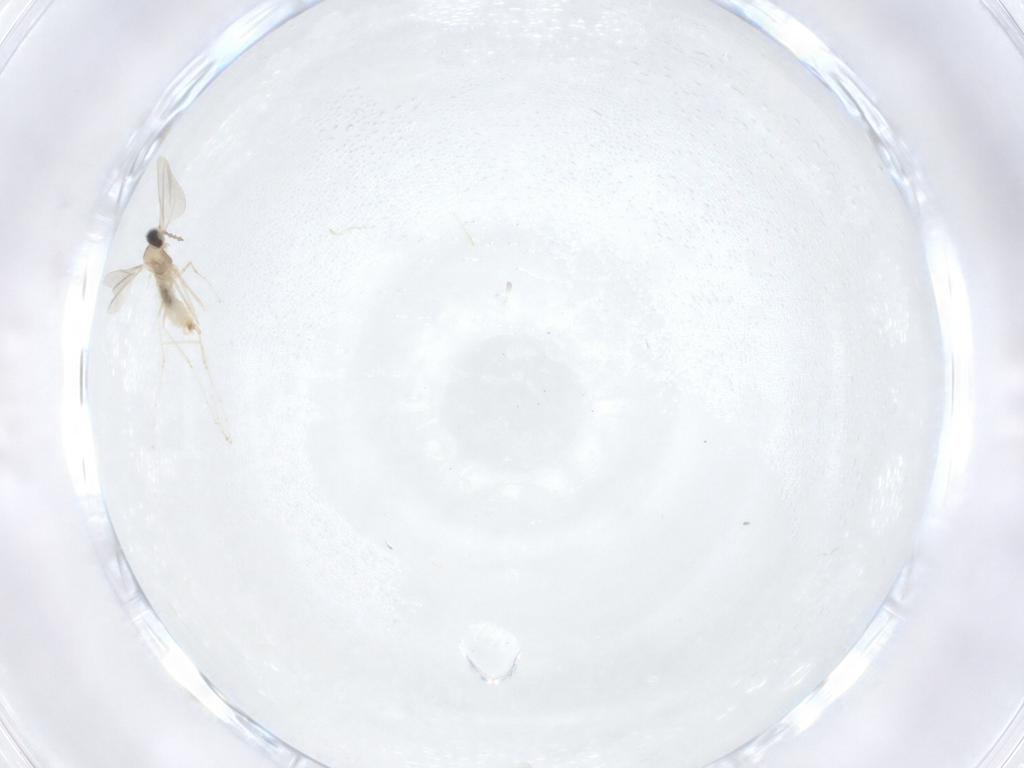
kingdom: Animalia
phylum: Arthropoda
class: Insecta
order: Diptera
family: Cecidomyiidae
